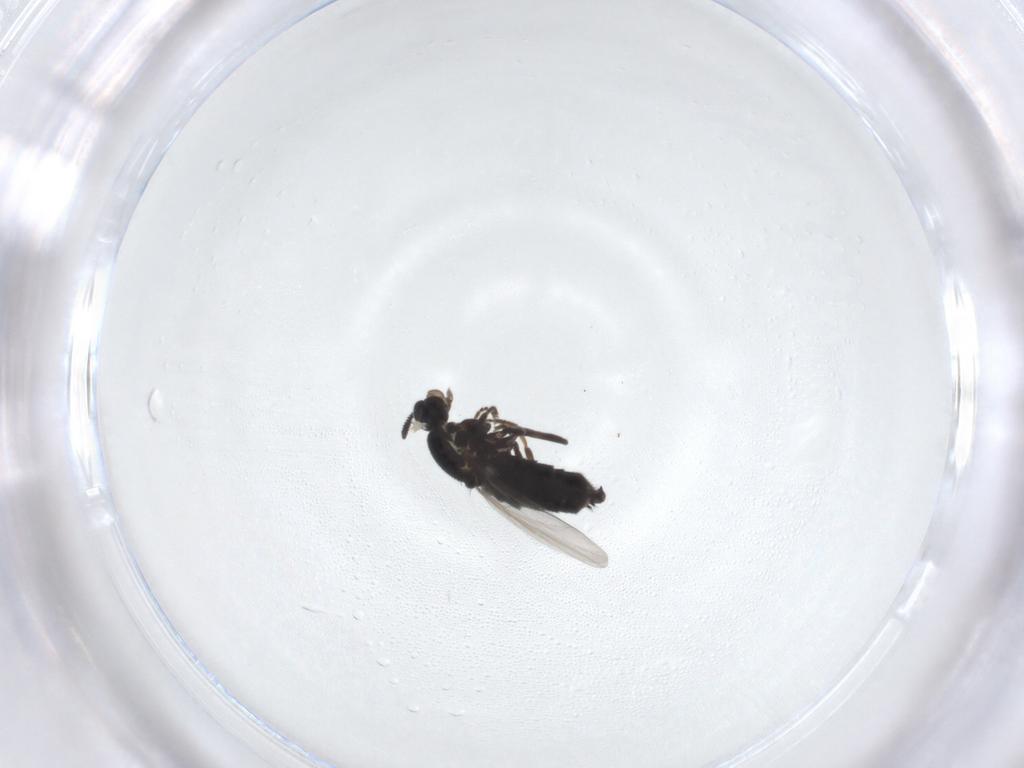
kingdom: Animalia
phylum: Arthropoda
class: Insecta
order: Diptera
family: Scatopsidae
